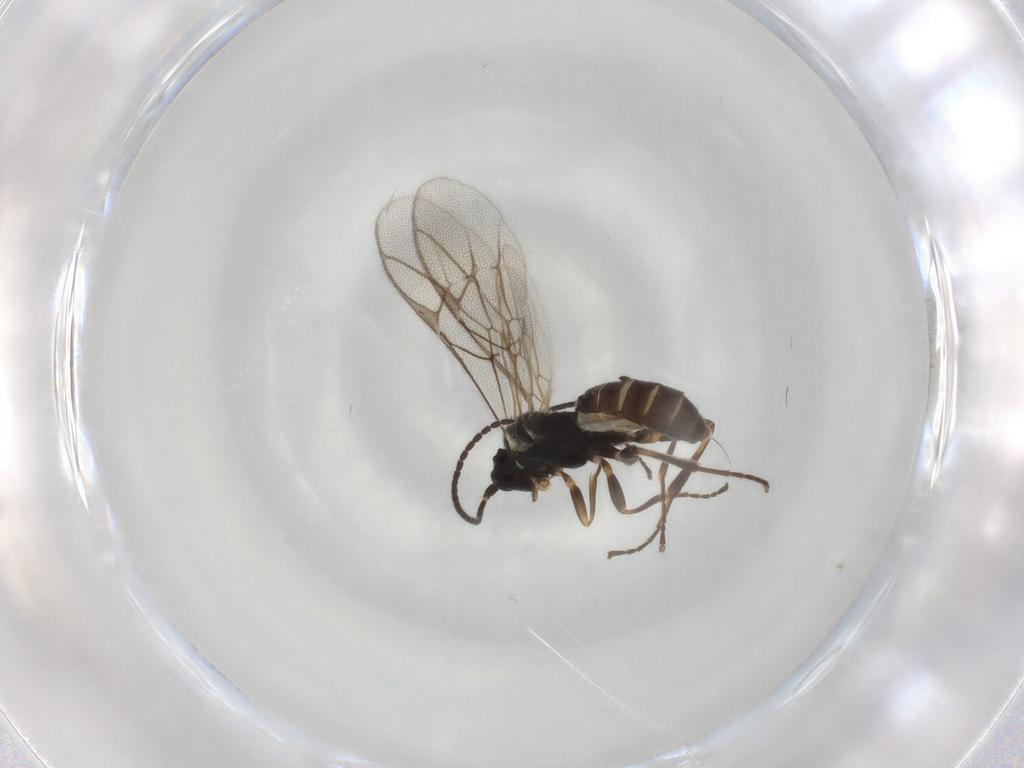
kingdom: Animalia
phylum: Arthropoda
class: Insecta
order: Hymenoptera
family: Ichneumonidae
